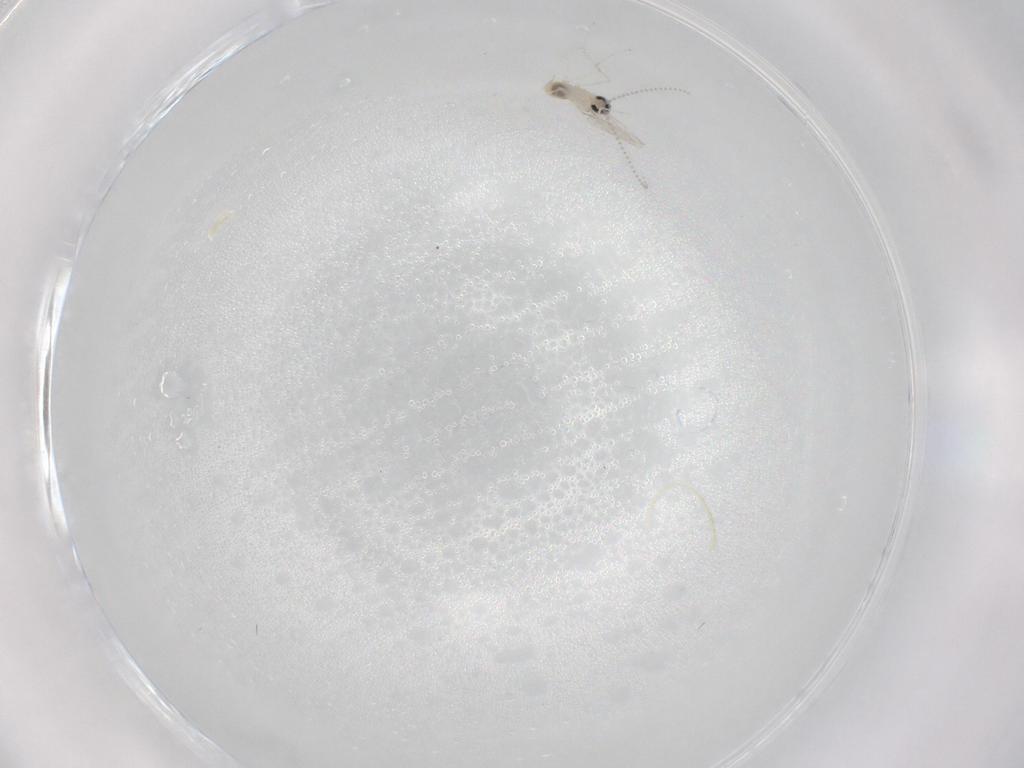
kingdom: Animalia
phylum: Arthropoda
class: Insecta
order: Diptera
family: Cecidomyiidae
